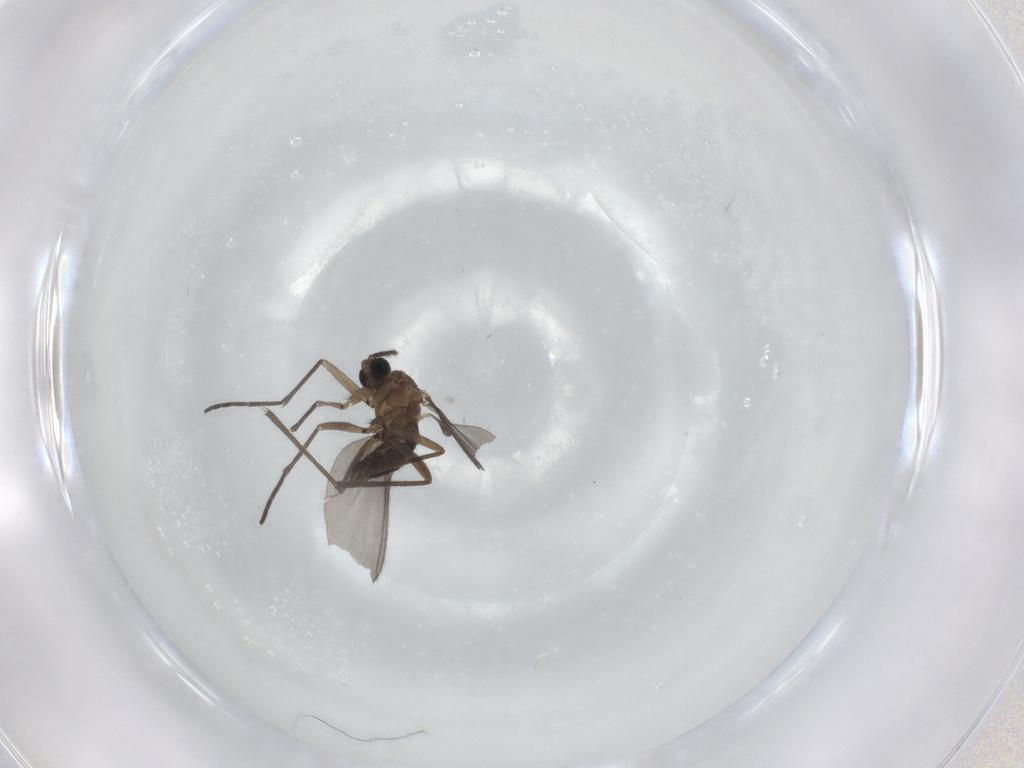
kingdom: Animalia
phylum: Arthropoda
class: Insecta
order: Diptera
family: Sciaridae
